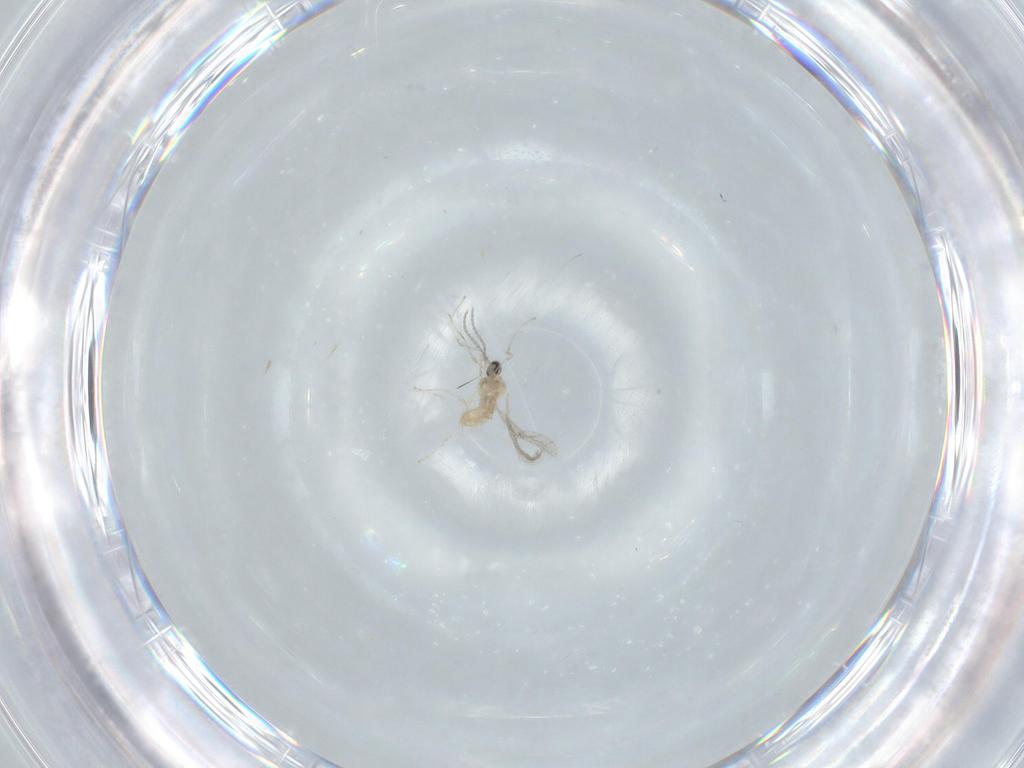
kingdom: Animalia
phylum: Arthropoda
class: Insecta
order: Diptera
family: Cecidomyiidae
